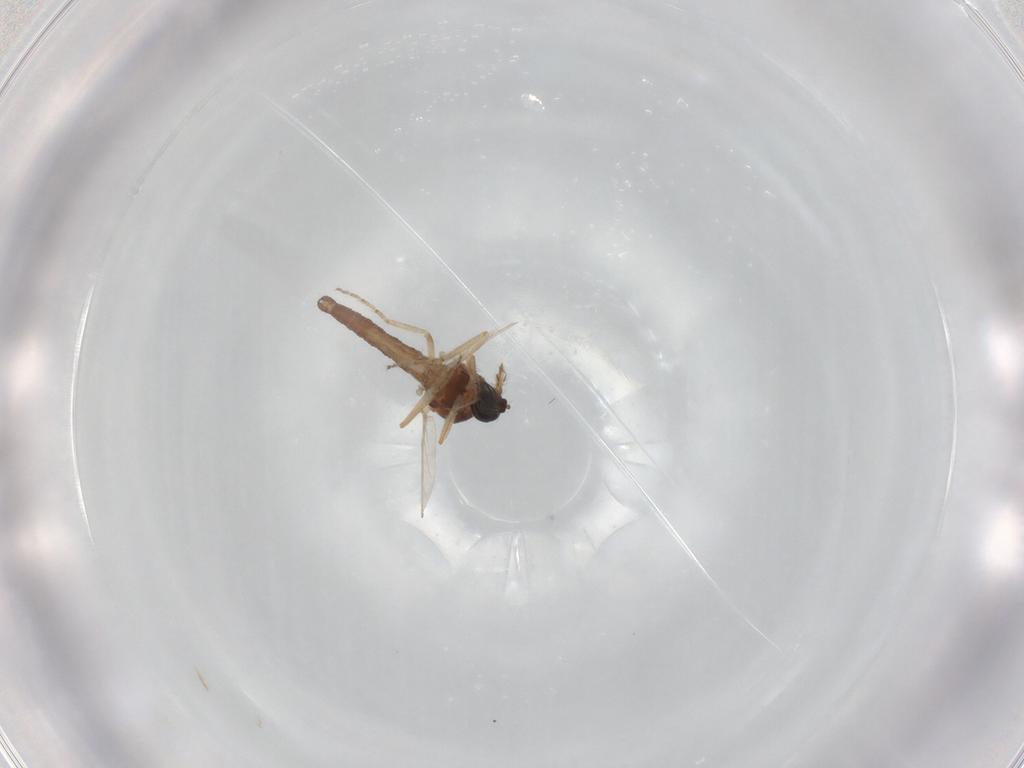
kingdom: Animalia
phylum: Arthropoda
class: Insecta
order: Diptera
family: Ceratopogonidae
